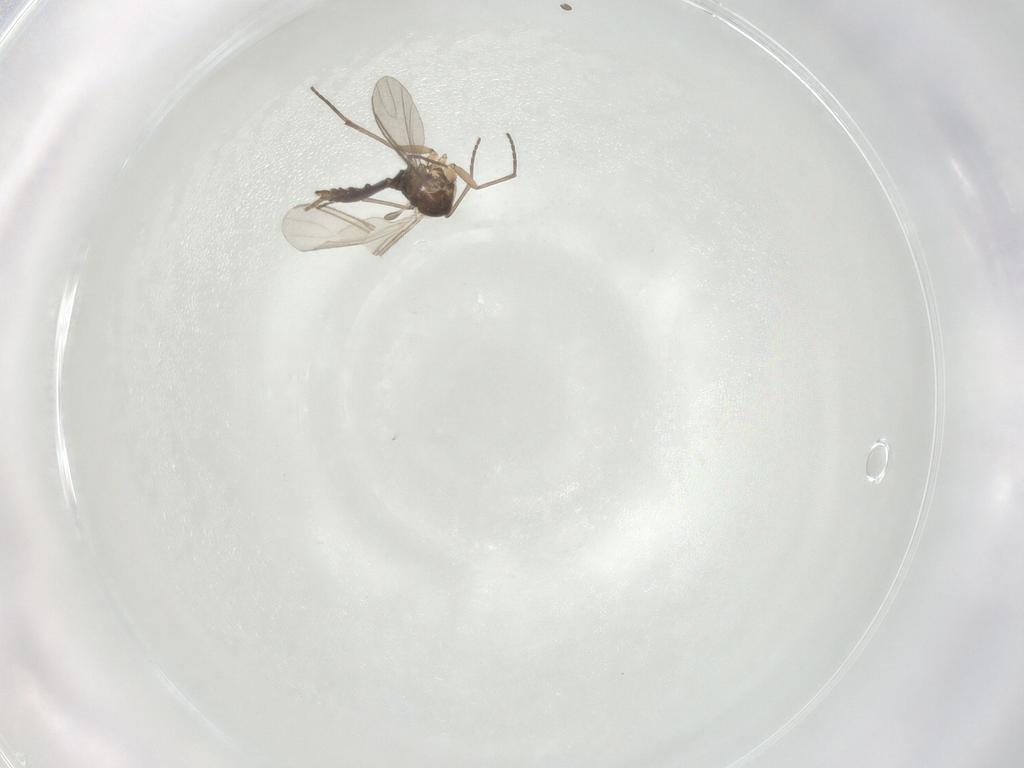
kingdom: Animalia
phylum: Arthropoda
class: Insecta
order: Diptera
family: Sciaridae
